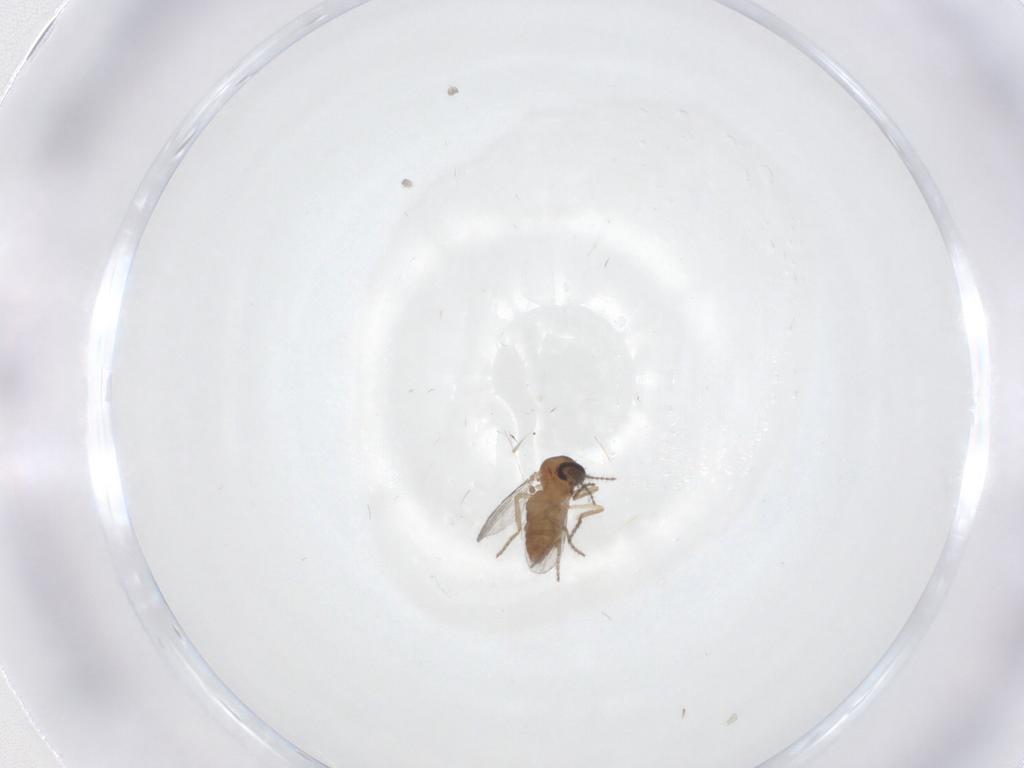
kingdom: Animalia
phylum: Arthropoda
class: Insecta
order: Diptera
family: Ceratopogonidae
